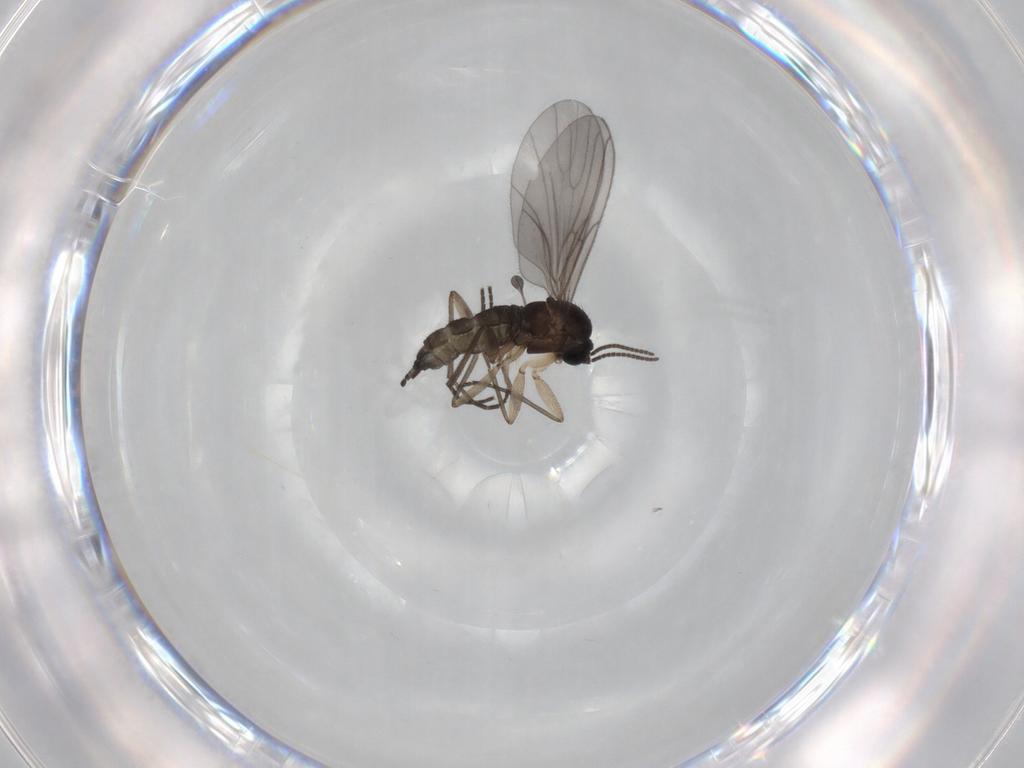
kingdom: Animalia
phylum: Arthropoda
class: Insecta
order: Diptera
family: Sciaridae
